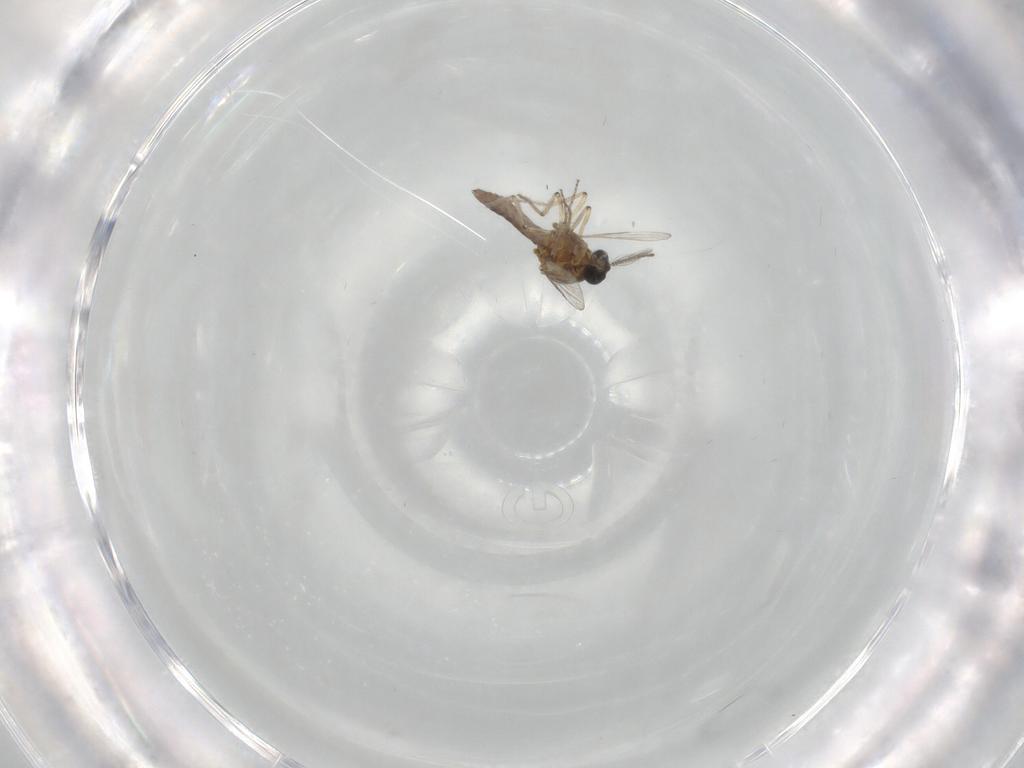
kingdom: Animalia
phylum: Arthropoda
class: Insecta
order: Diptera
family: Ceratopogonidae
